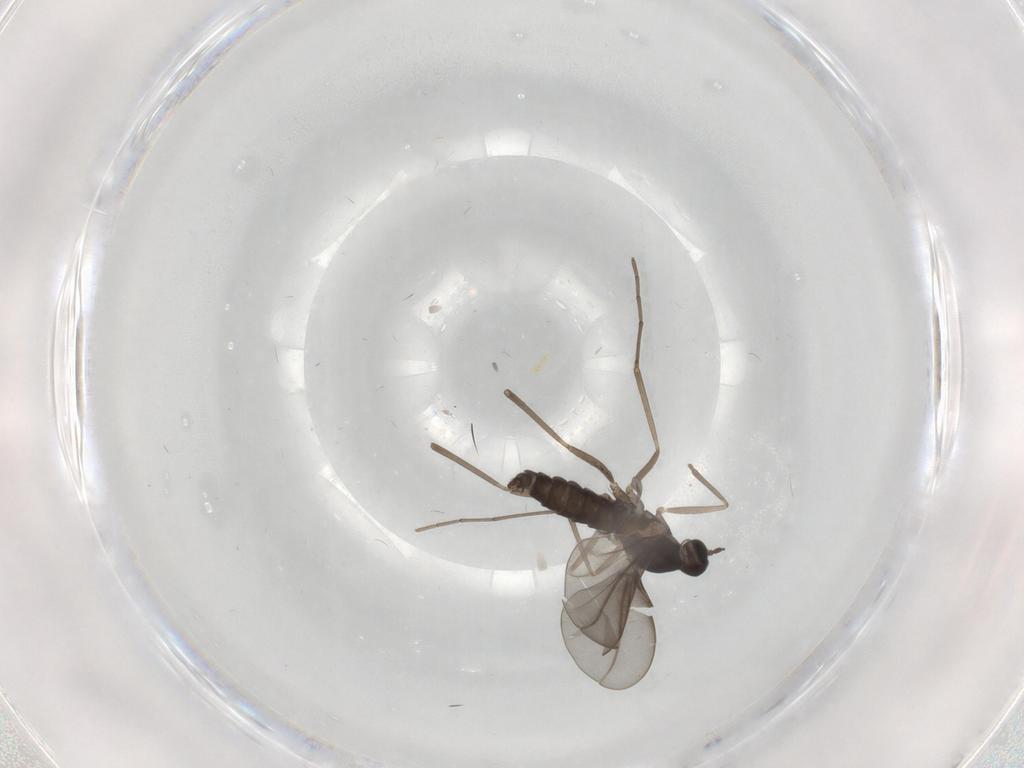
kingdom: Animalia
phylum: Arthropoda
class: Insecta
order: Diptera
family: Cecidomyiidae
